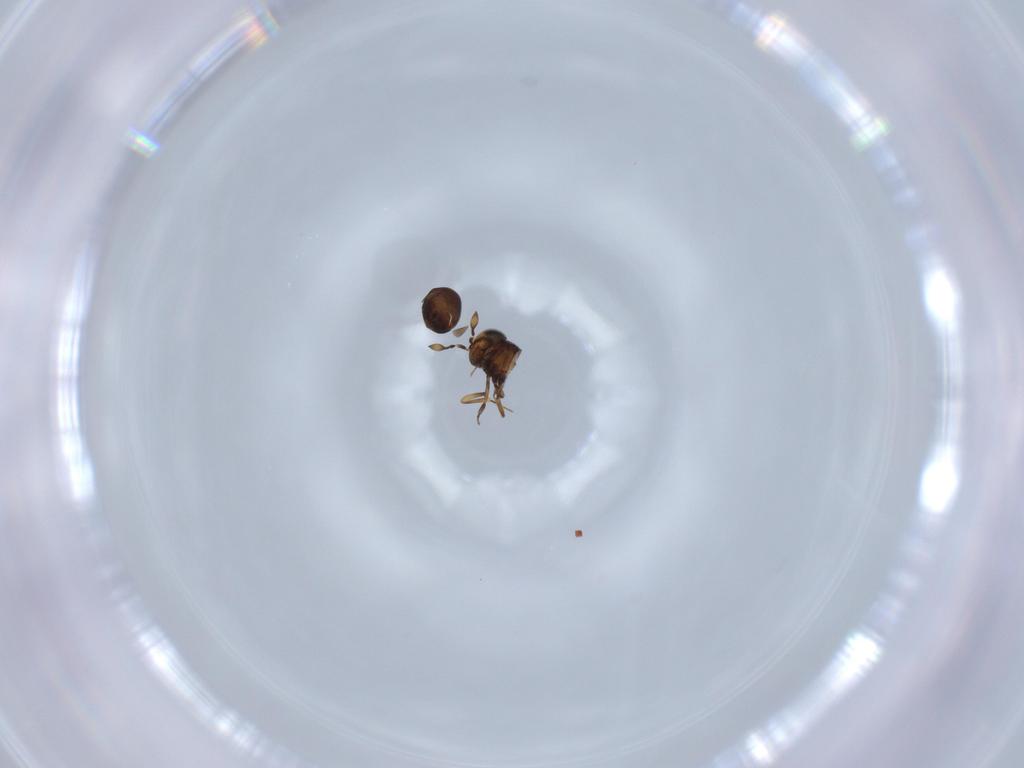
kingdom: Animalia
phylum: Arthropoda
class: Insecta
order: Hymenoptera
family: Scelionidae
